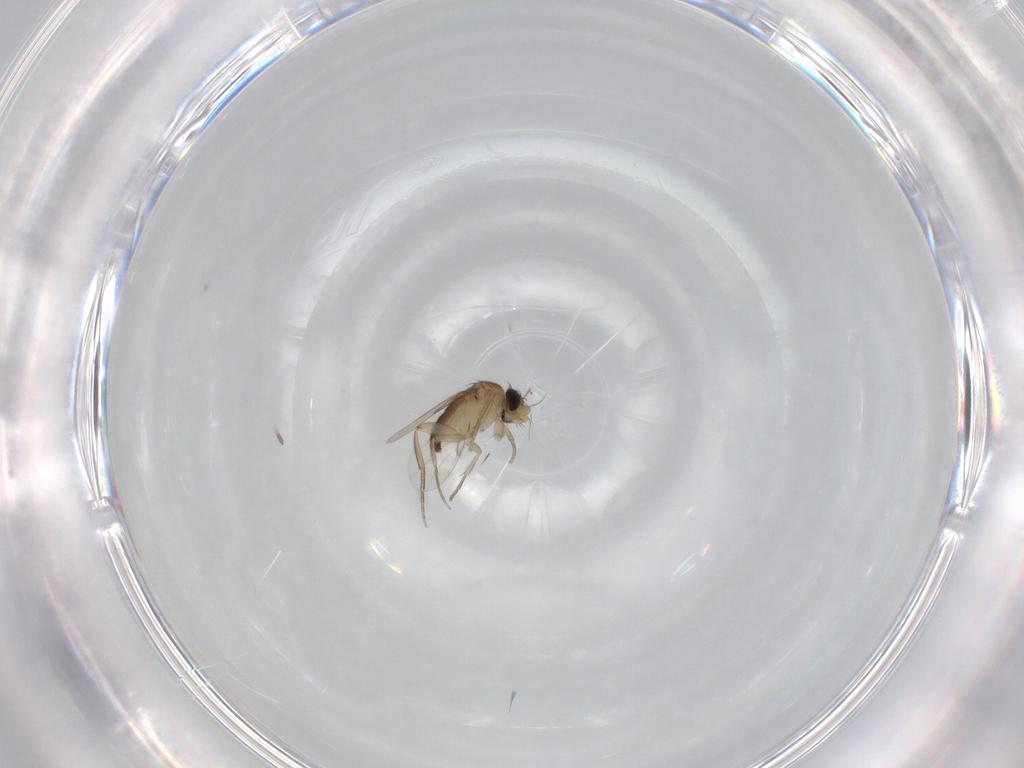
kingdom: Animalia
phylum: Arthropoda
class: Insecta
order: Diptera
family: Phoridae
